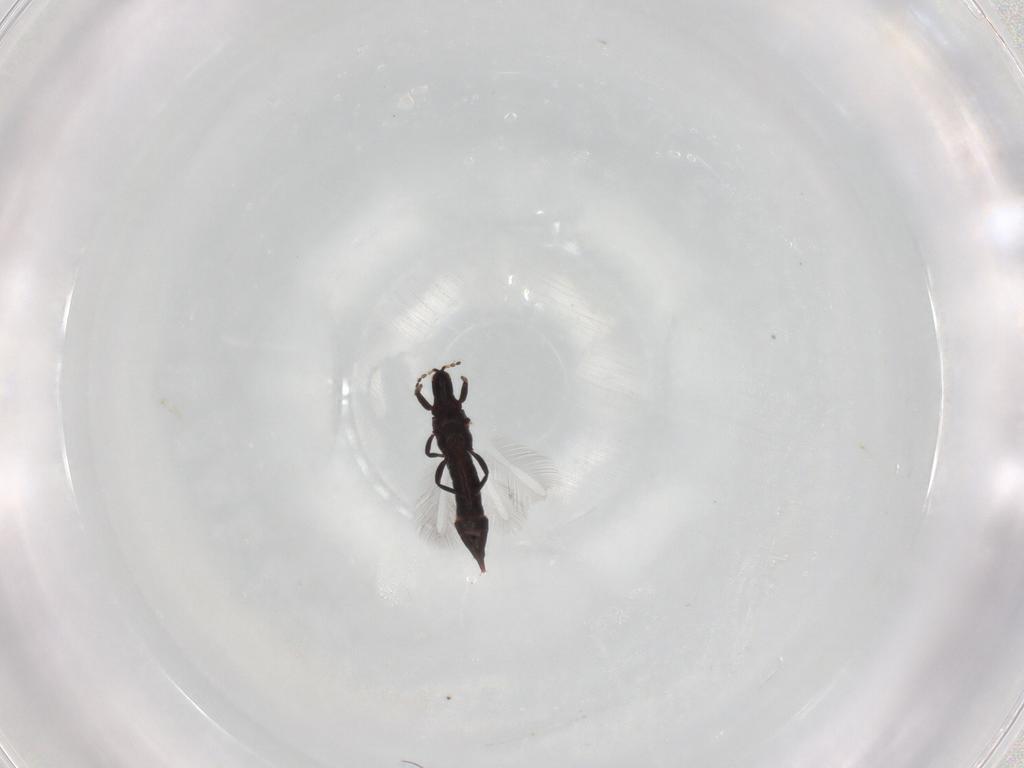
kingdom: Animalia
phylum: Arthropoda
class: Insecta
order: Thysanoptera
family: Phlaeothripidae
